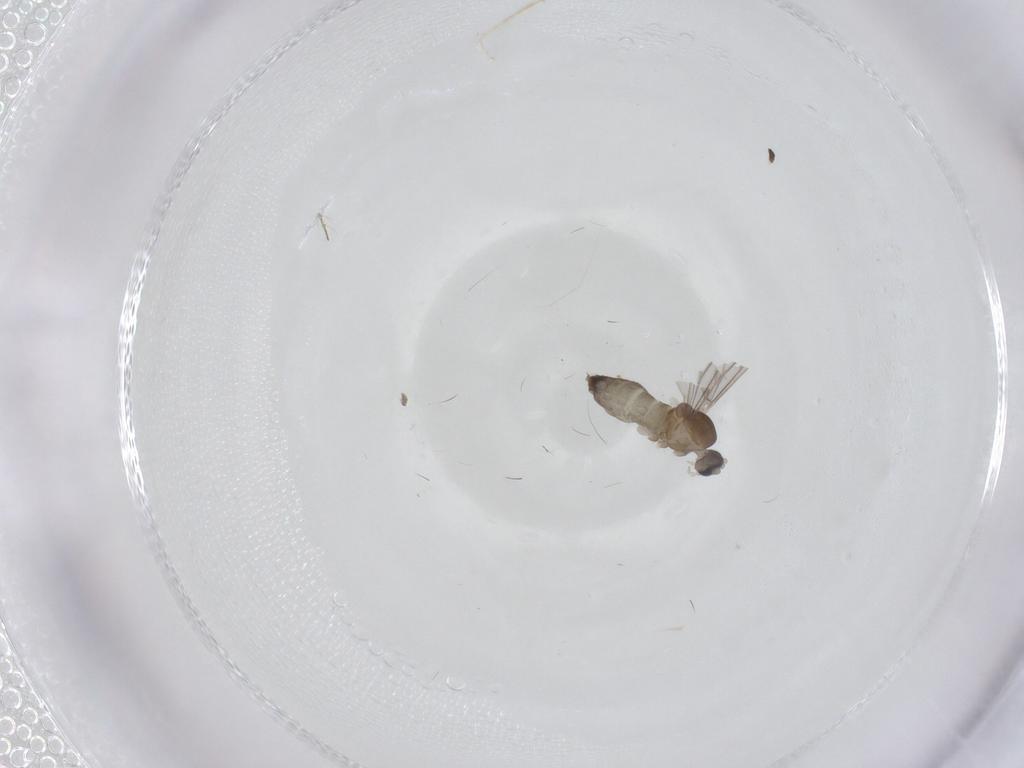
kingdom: Animalia
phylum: Arthropoda
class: Insecta
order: Diptera
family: Cecidomyiidae
